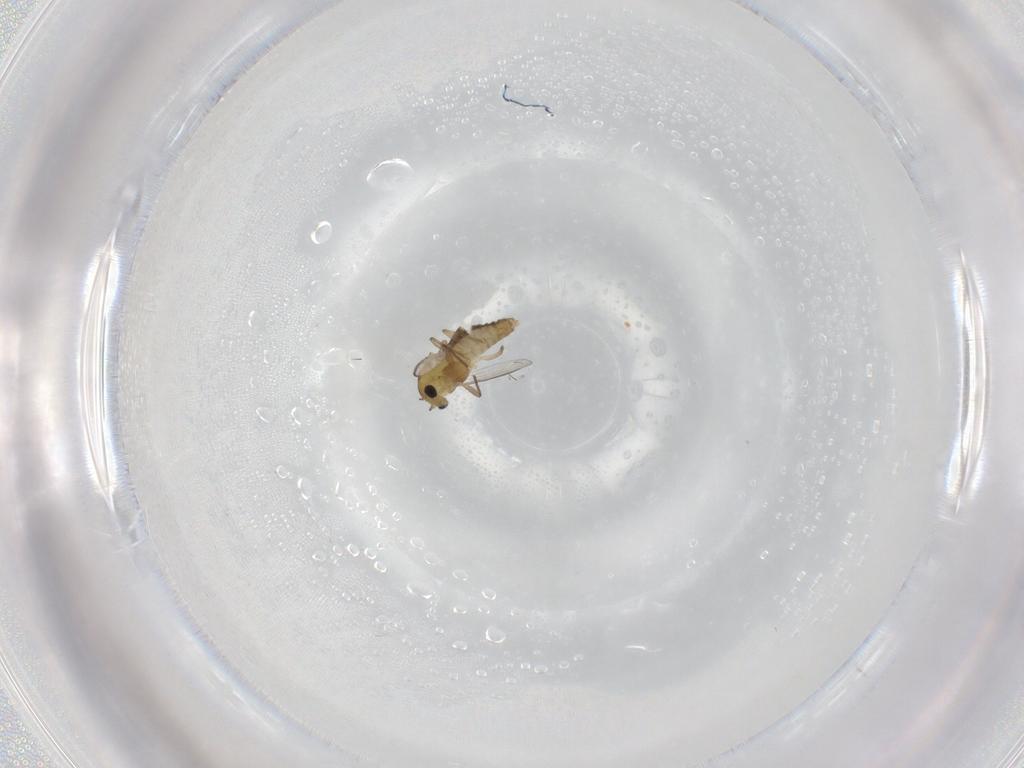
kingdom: Animalia
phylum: Arthropoda
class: Insecta
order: Diptera
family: Chironomidae
